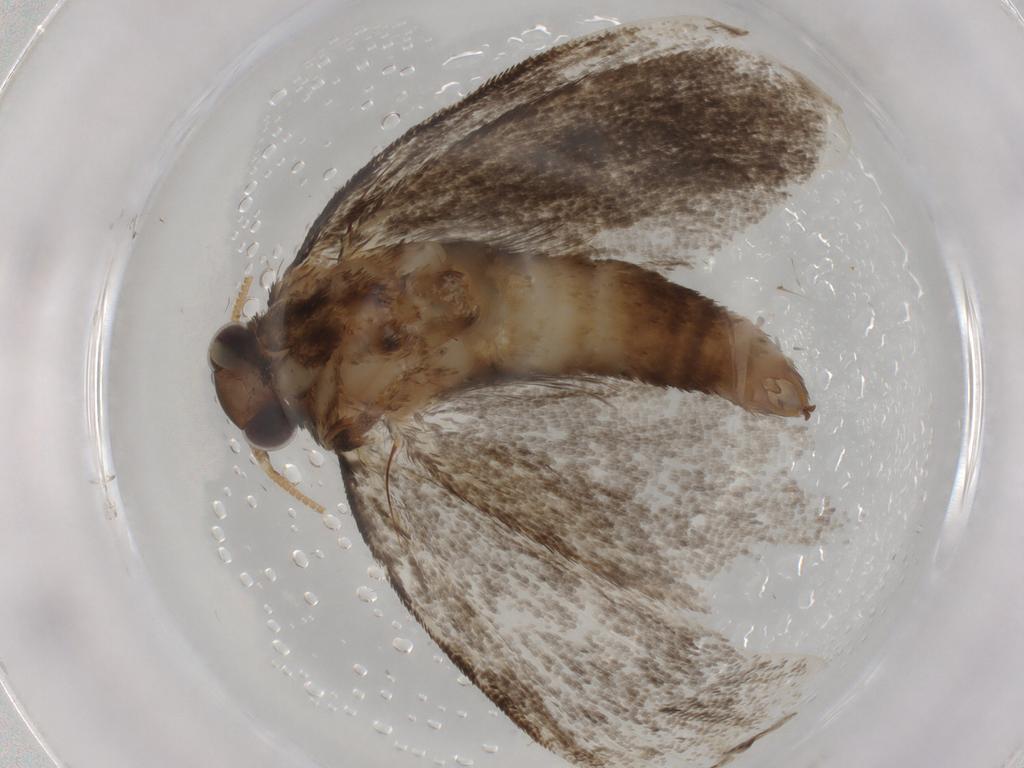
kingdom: Animalia
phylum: Arthropoda
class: Insecta
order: Lepidoptera
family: Tineidae
